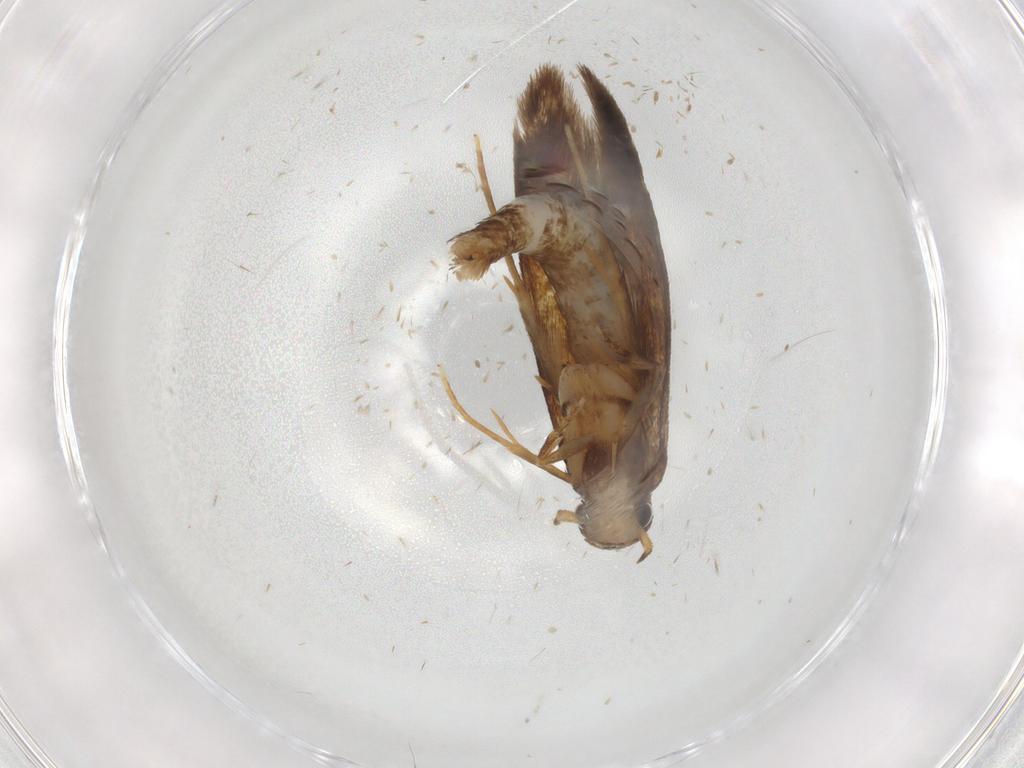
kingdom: Animalia
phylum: Arthropoda
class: Insecta
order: Lepidoptera
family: Tineidae
